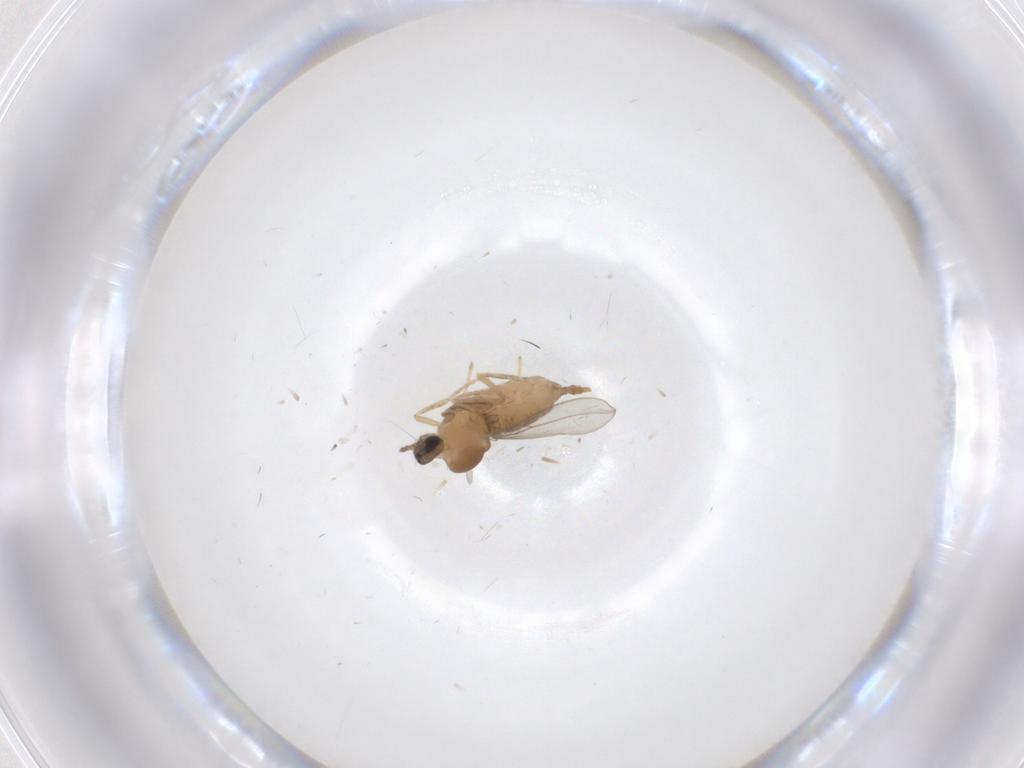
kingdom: Animalia
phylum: Arthropoda
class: Insecta
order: Diptera
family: Cecidomyiidae
